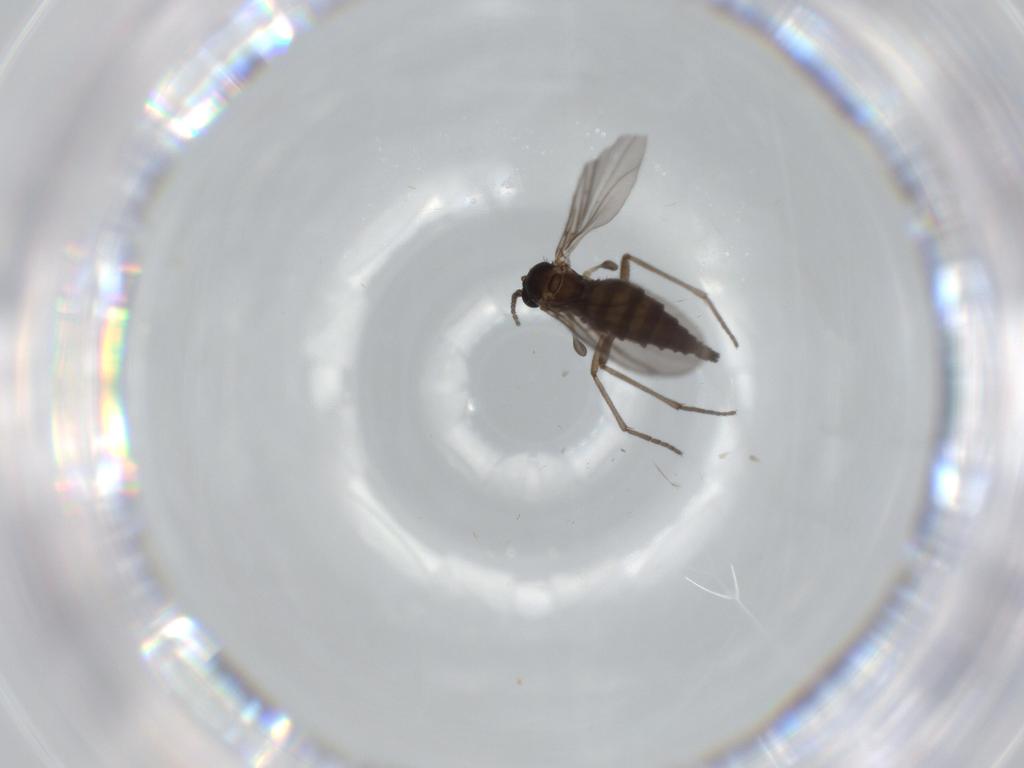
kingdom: Animalia
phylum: Arthropoda
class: Insecta
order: Diptera
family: Sciaridae
